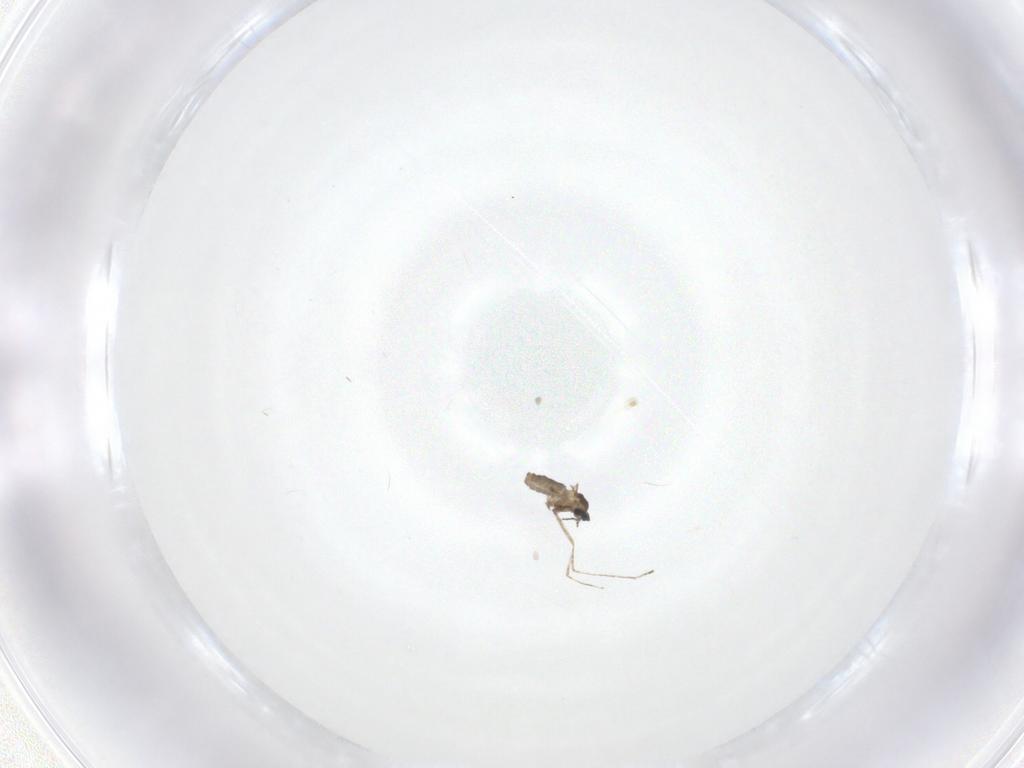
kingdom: Animalia
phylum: Arthropoda
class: Insecta
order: Diptera
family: Cecidomyiidae
